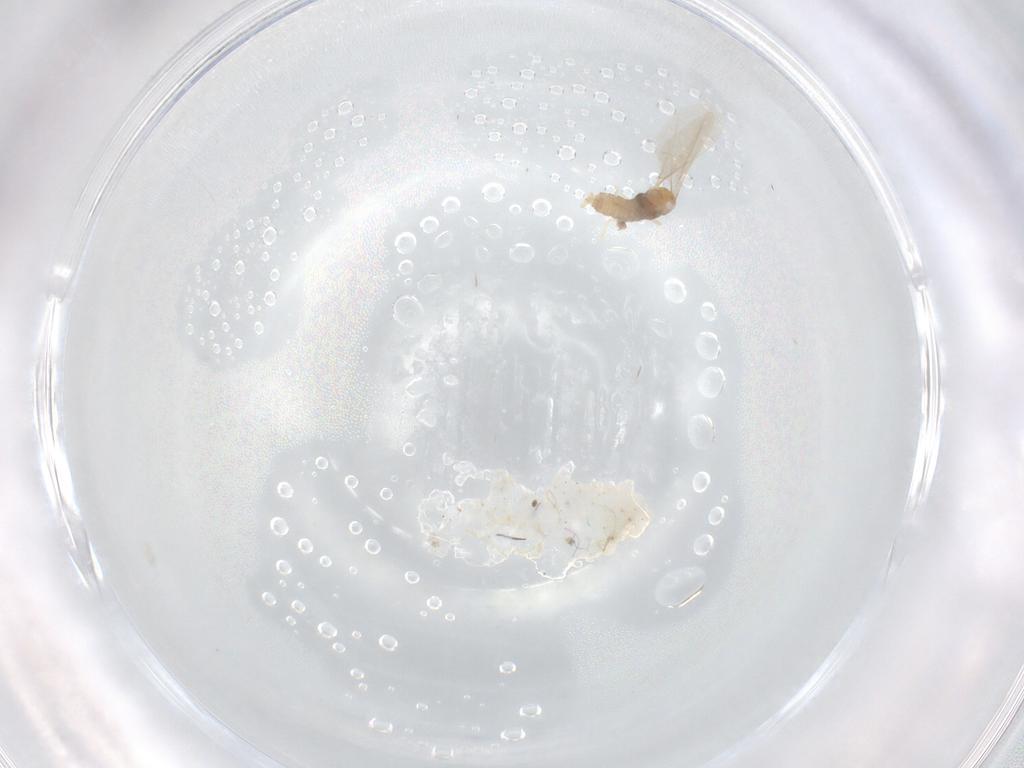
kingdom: Animalia
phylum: Arthropoda
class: Insecta
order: Diptera
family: Cecidomyiidae
